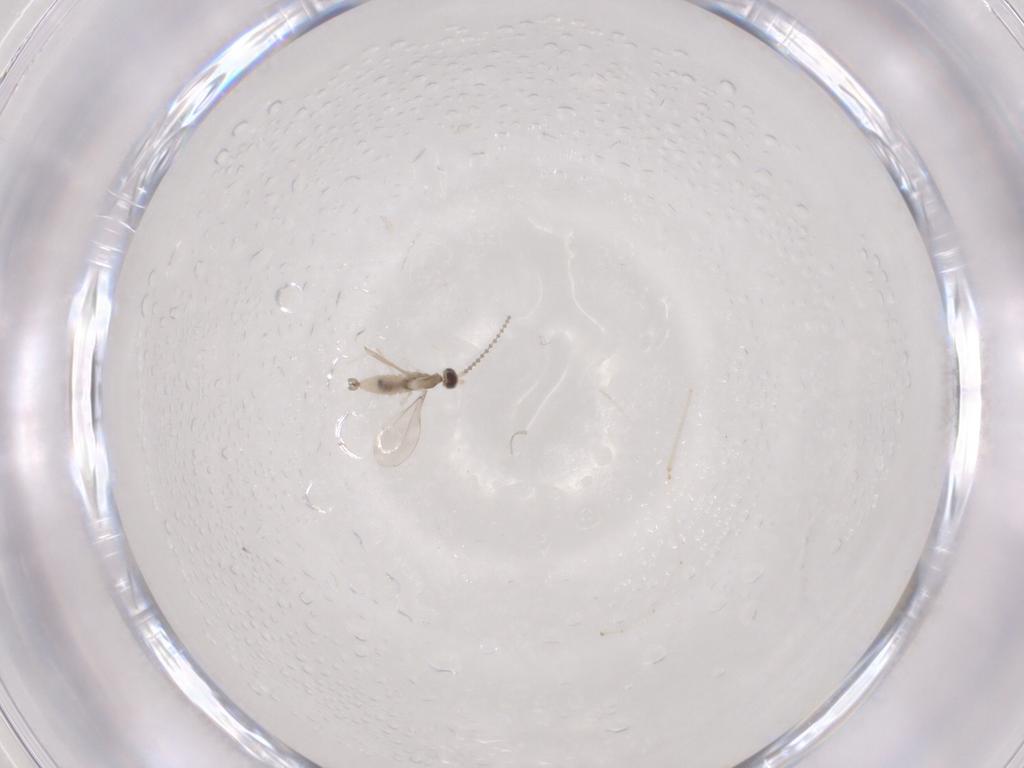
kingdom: Animalia
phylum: Arthropoda
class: Insecta
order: Diptera
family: Cecidomyiidae
